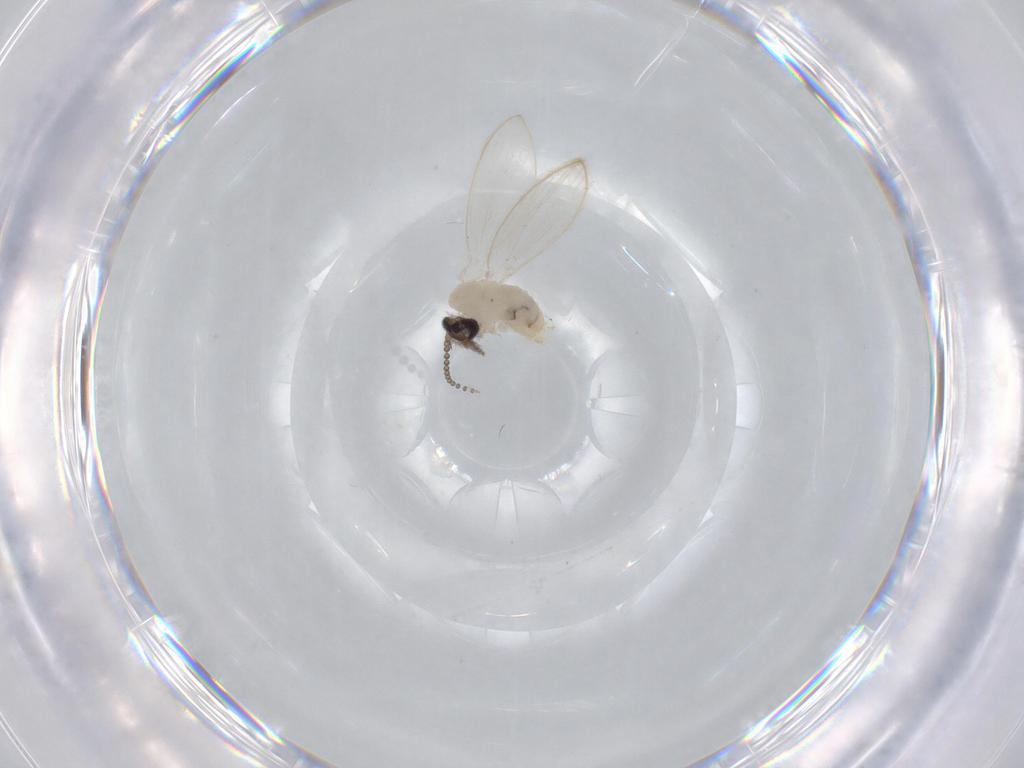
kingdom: Animalia
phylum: Arthropoda
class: Insecta
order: Diptera
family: Psychodidae
